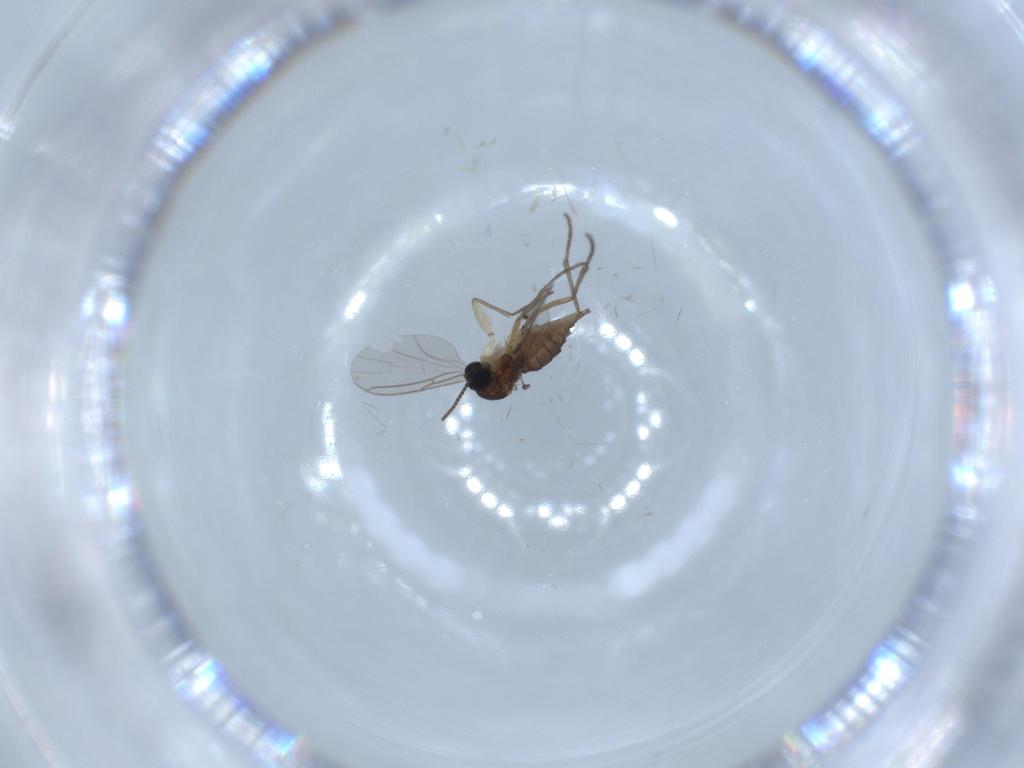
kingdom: Animalia
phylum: Arthropoda
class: Insecta
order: Diptera
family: Sciaridae
